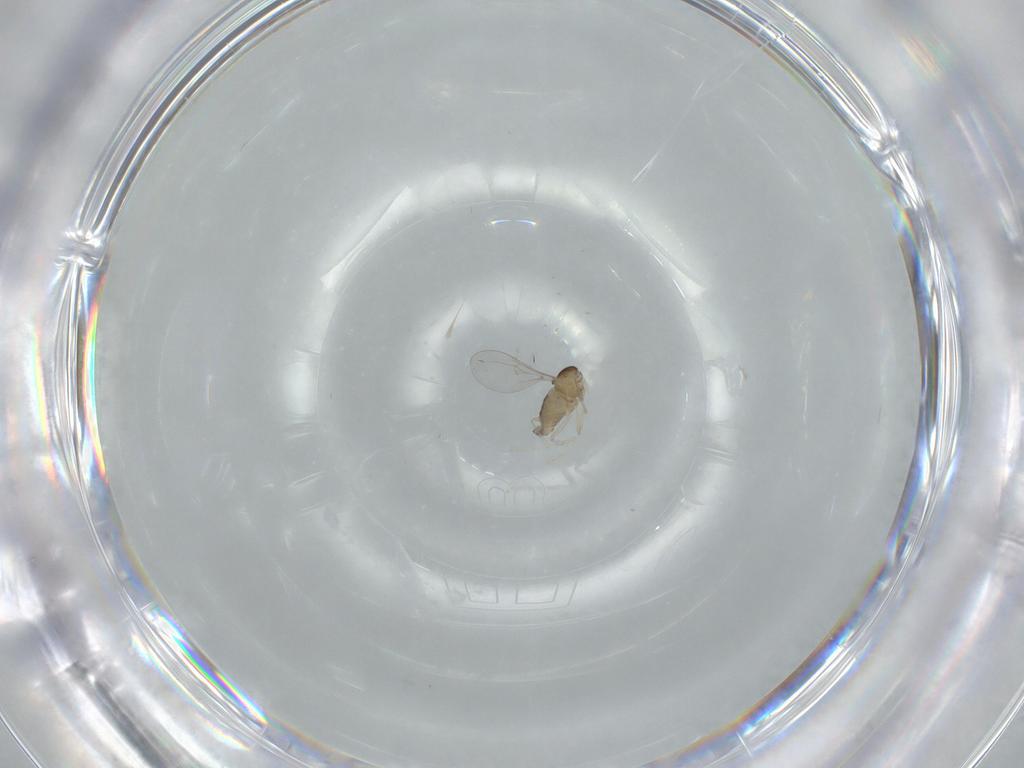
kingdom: Animalia
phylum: Arthropoda
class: Insecta
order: Diptera
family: Cecidomyiidae
